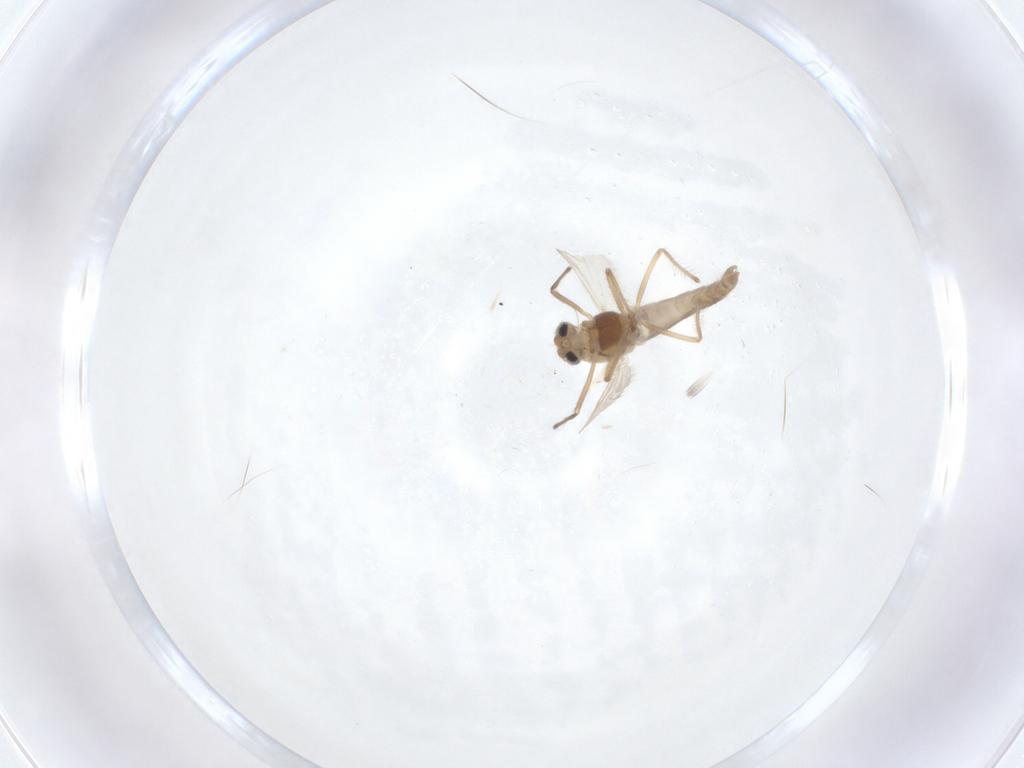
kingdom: Animalia
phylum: Arthropoda
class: Insecta
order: Diptera
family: Chironomidae
